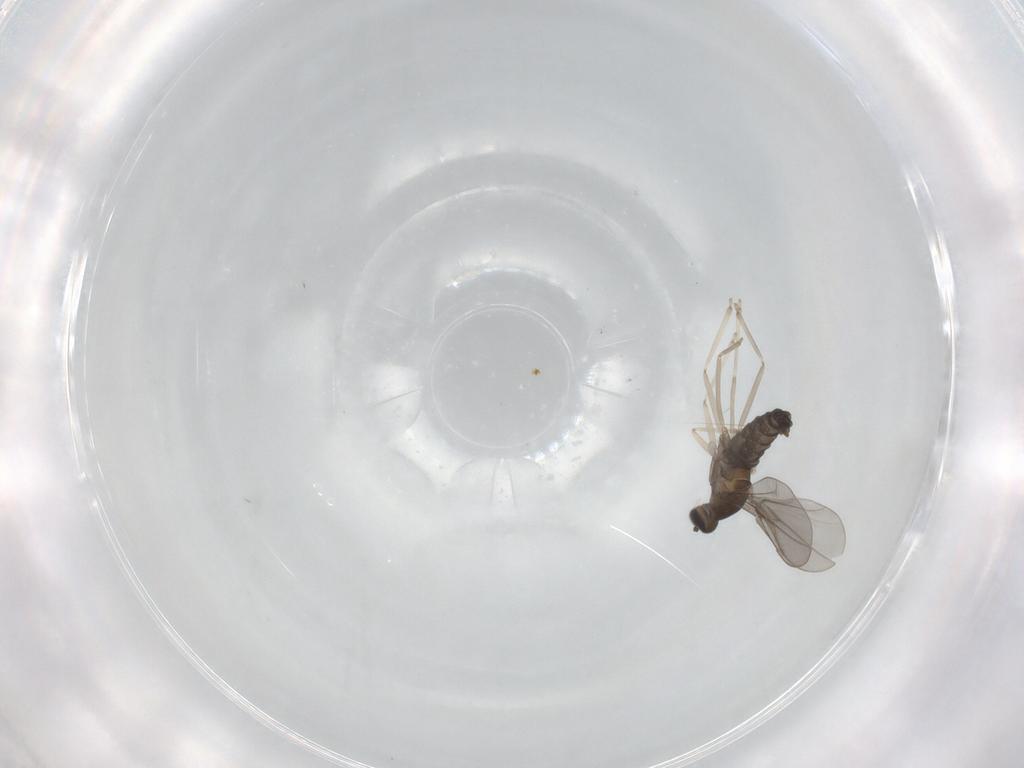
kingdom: Animalia
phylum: Arthropoda
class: Insecta
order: Diptera
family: Cecidomyiidae
